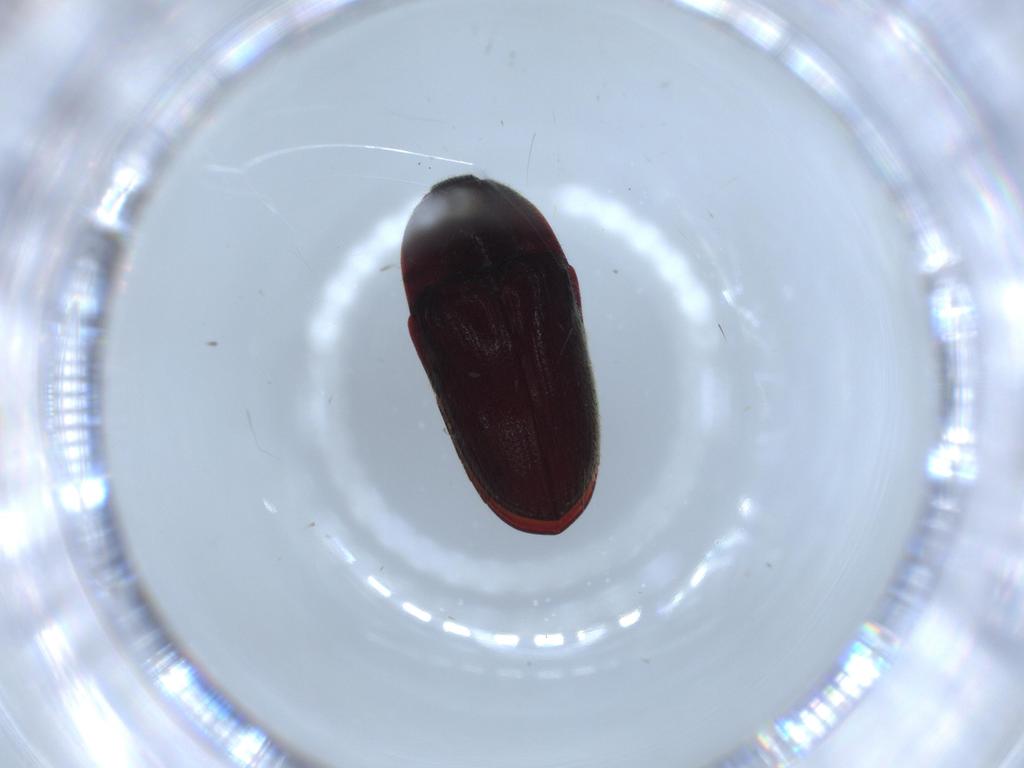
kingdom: Animalia
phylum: Arthropoda
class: Insecta
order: Coleoptera
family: Throscidae
